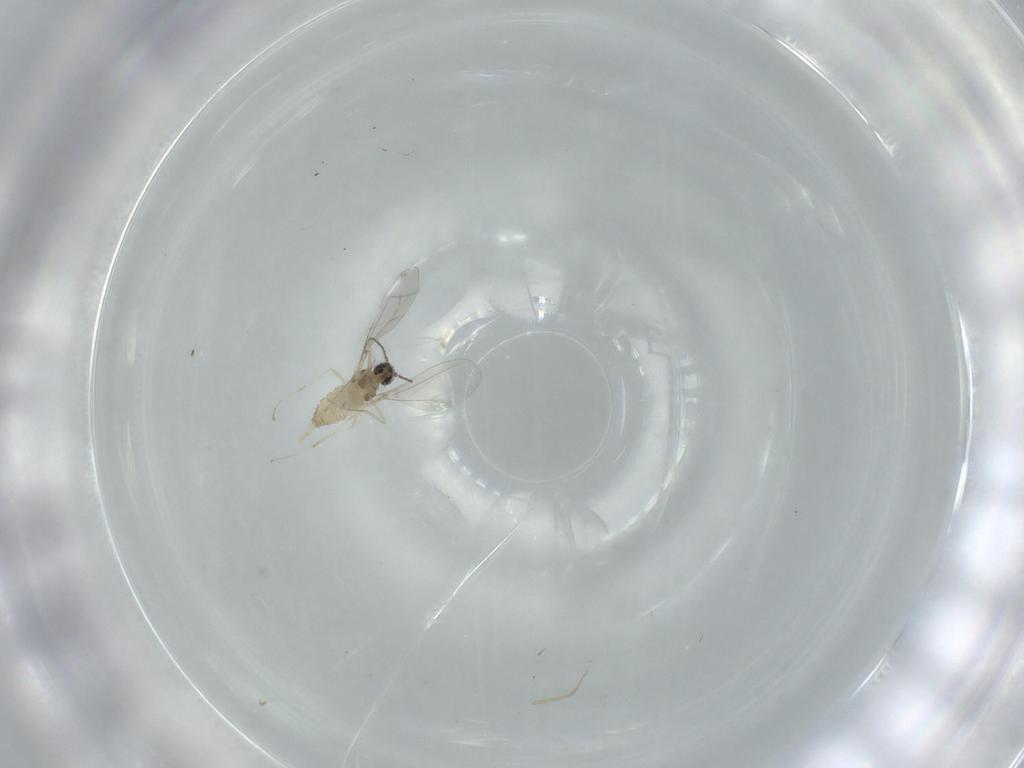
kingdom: Animalia
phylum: Arthropoda
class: Insecta
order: Diptera
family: Cecidomyiidae
